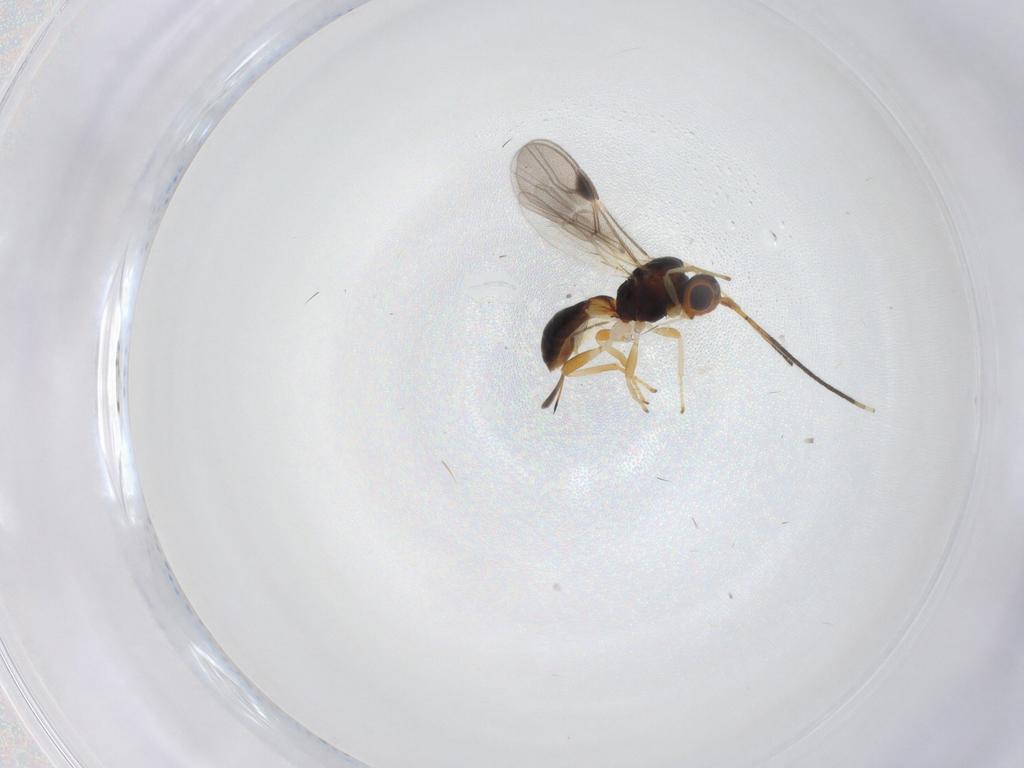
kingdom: Animalia
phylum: Arthropoda
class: Insecta
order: Hymenoptera
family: Braconidae
